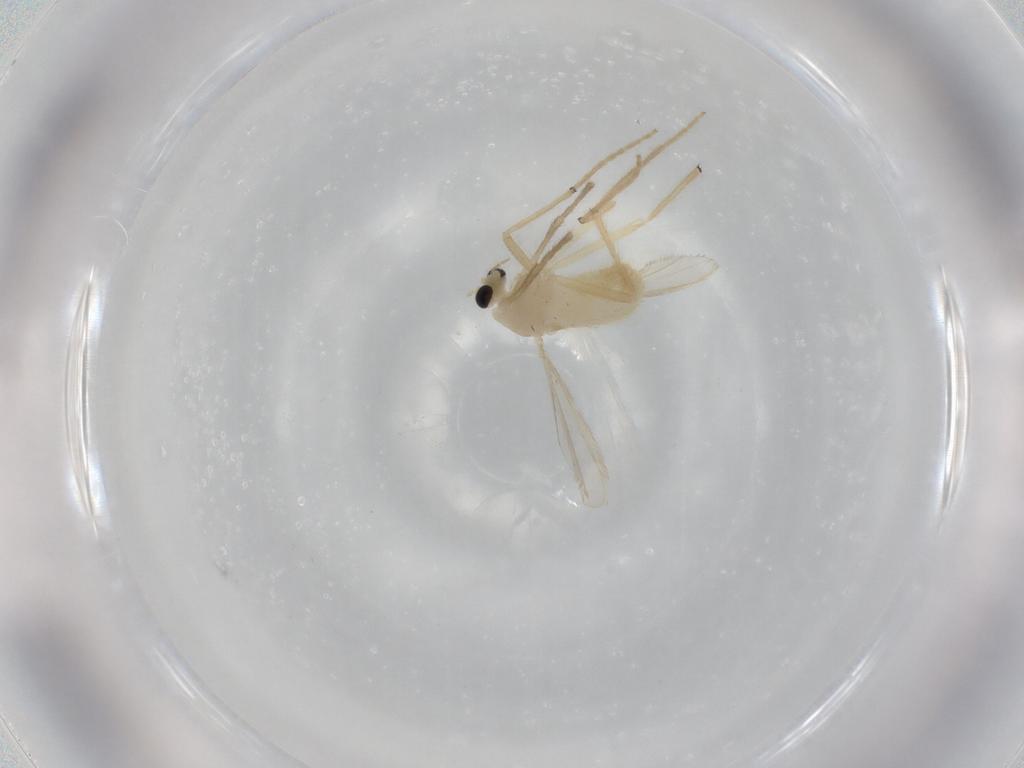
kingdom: Animalia
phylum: Arthropoda
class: Insecta
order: Diptera
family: Chironomidae
